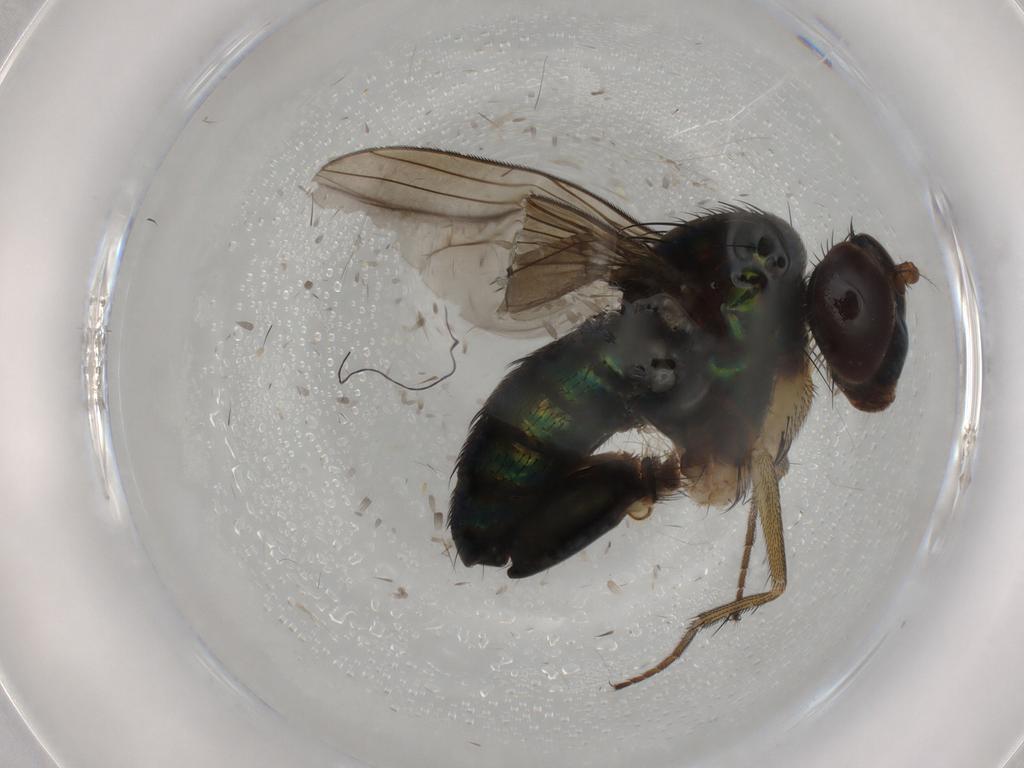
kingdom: Animalia
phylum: Arthropoda
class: Insecta
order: Diptera
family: Dolichopodidae
